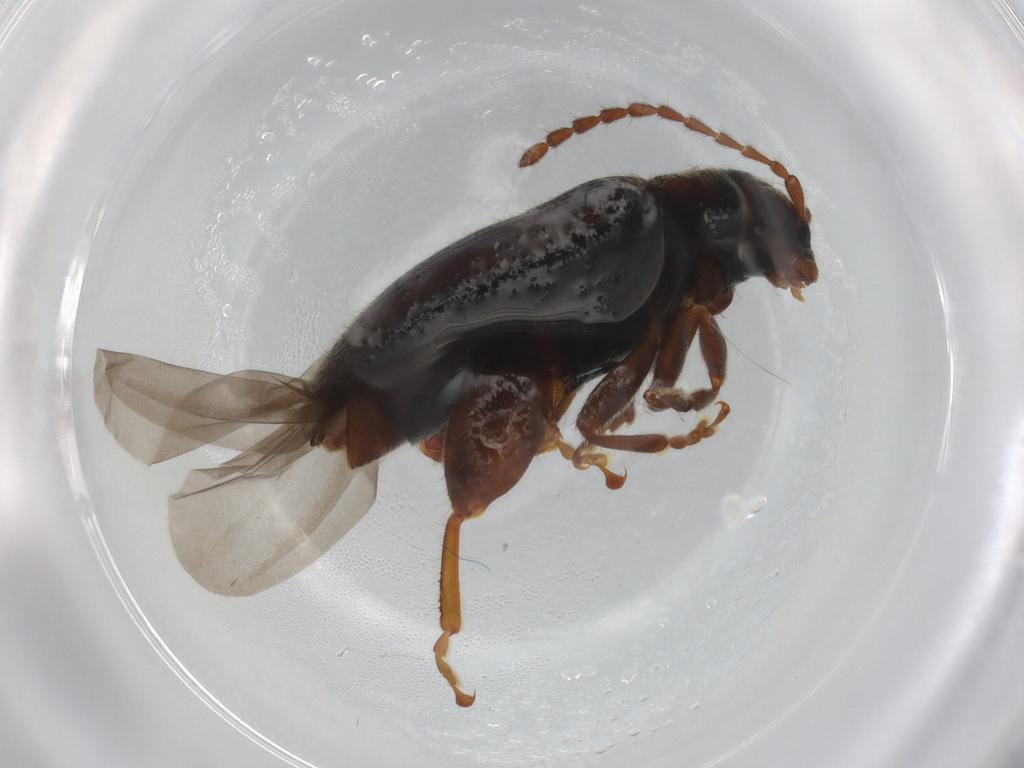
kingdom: Animalia
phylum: Arthropoda
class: Insecta
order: Coleoptera
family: Chrysomelidae
